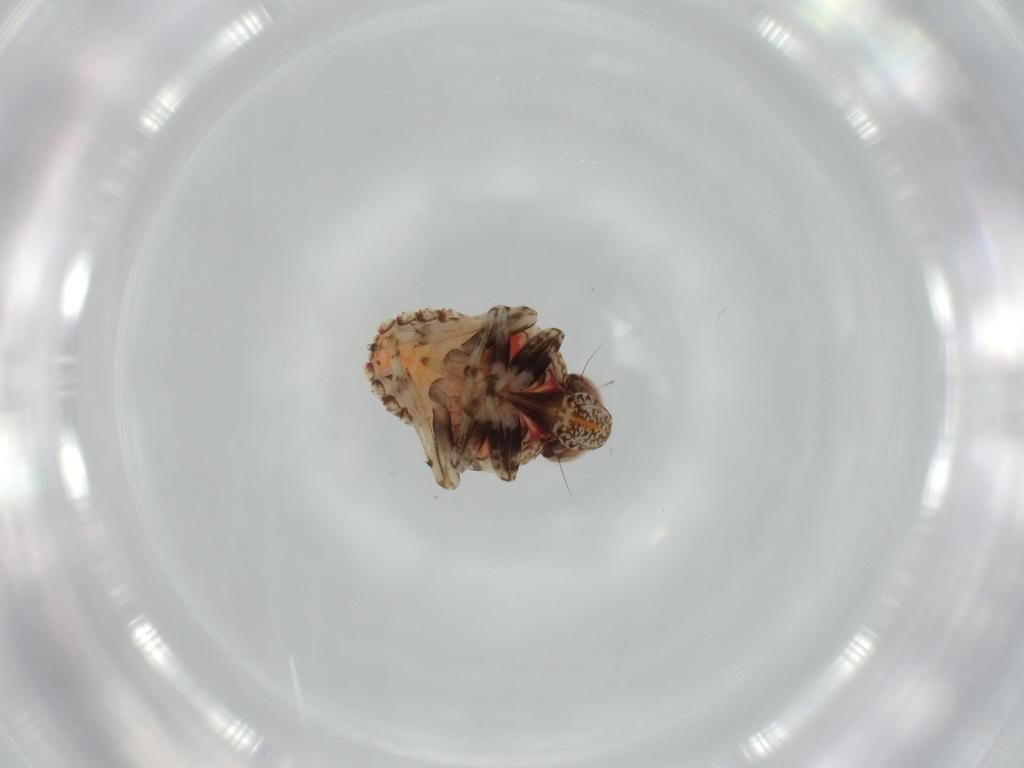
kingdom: Animalia
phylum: Arthropoda
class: Insecta
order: Hemiptera
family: Issidae
